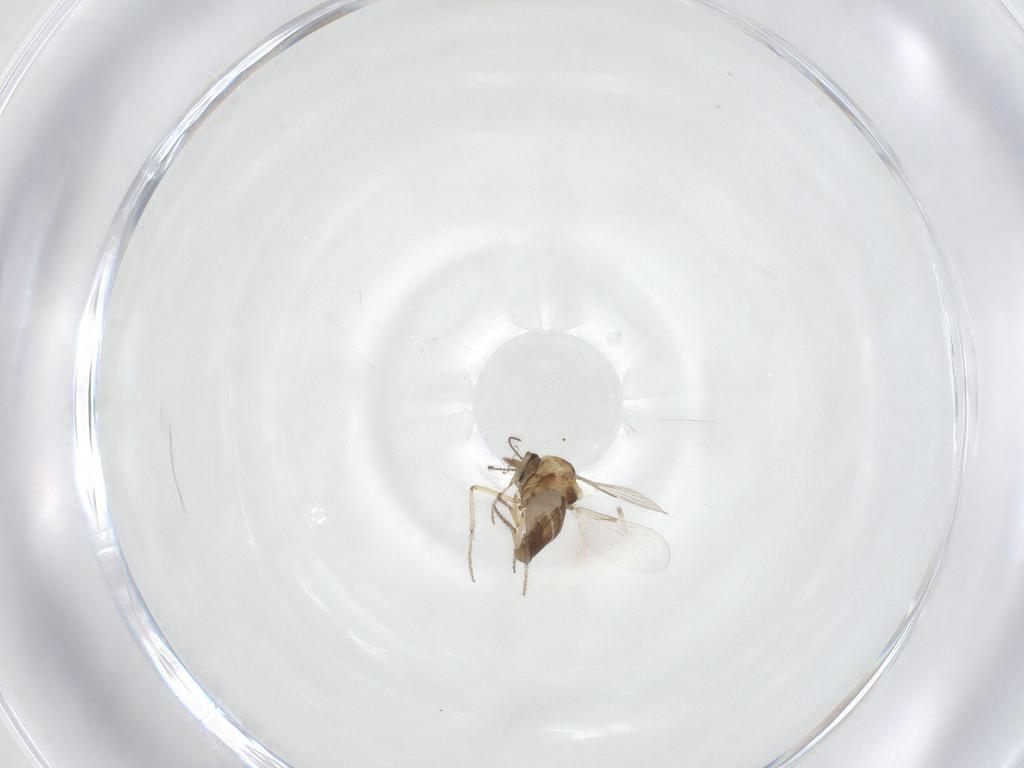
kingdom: Animalia
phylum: Arthropoda
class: Insecta
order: Diptera
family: Ceratopogonidae
